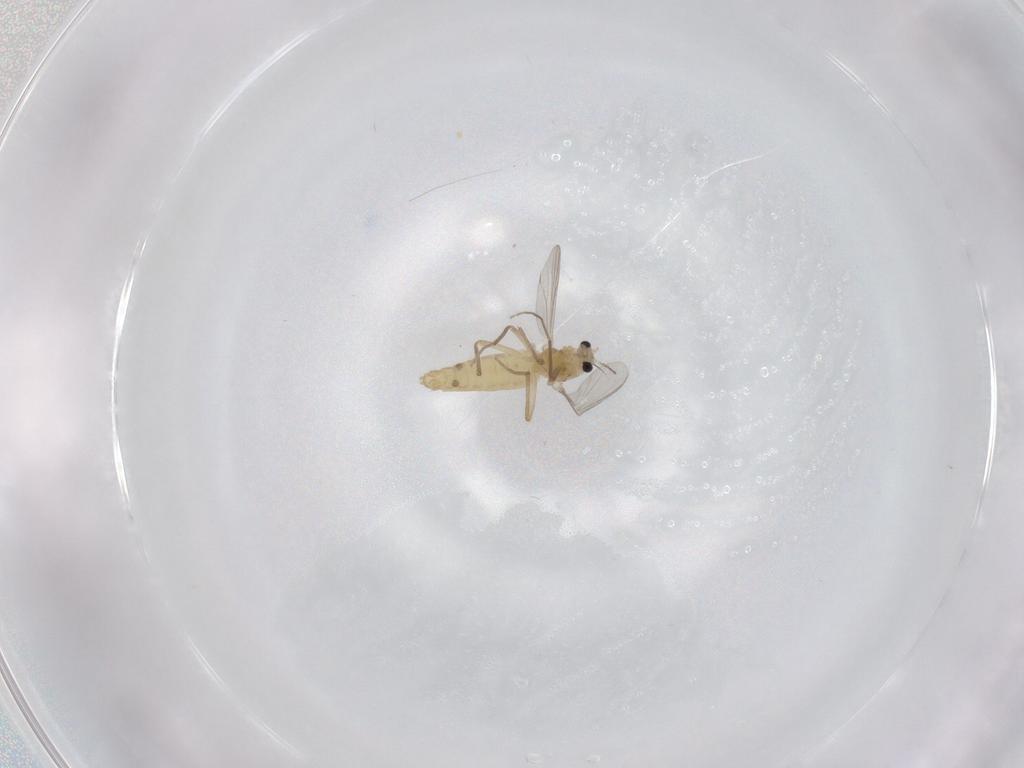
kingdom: Animalia
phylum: Arthropoda
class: Insecta
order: Diptera
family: Chironomidae
